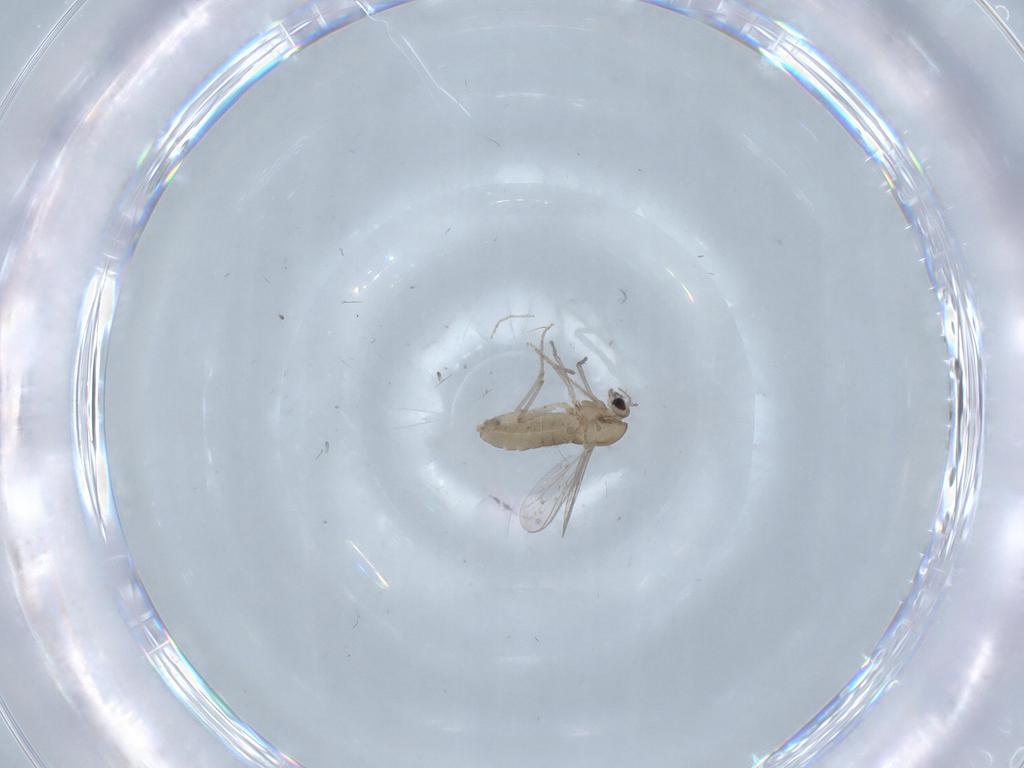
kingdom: Animalia
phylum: Arthropoda
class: Insecta
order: Diptera
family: Chironomidae
